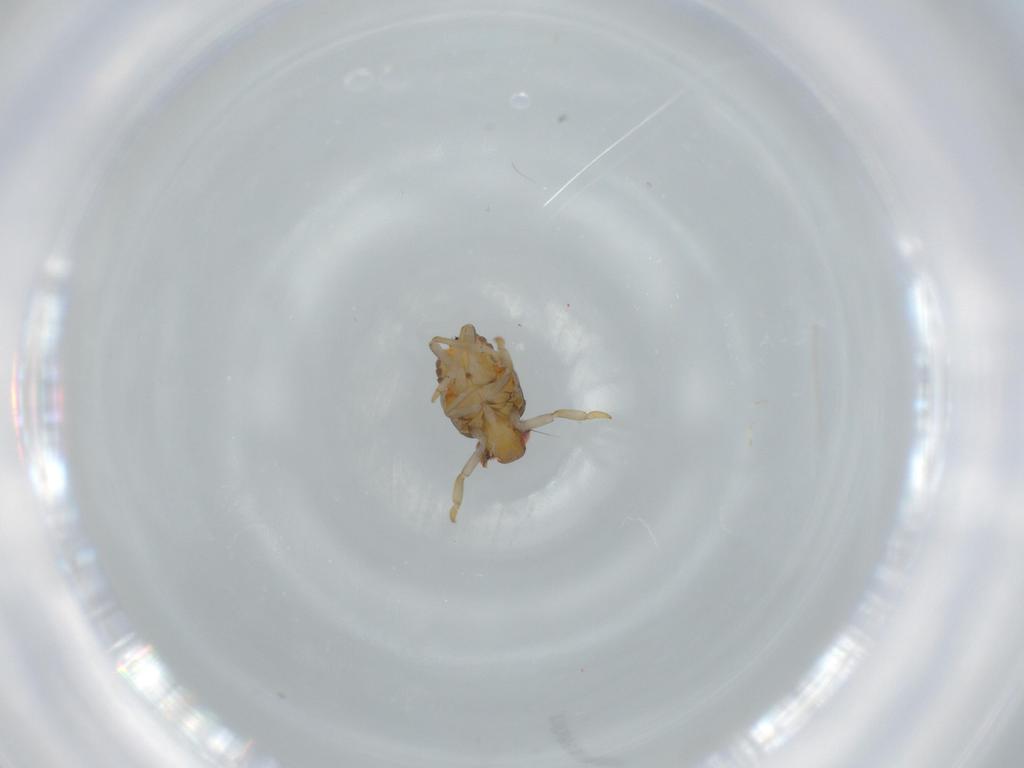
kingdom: Animalia
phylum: Arthropoda
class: Insecta
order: Hemiptera
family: Issidae
